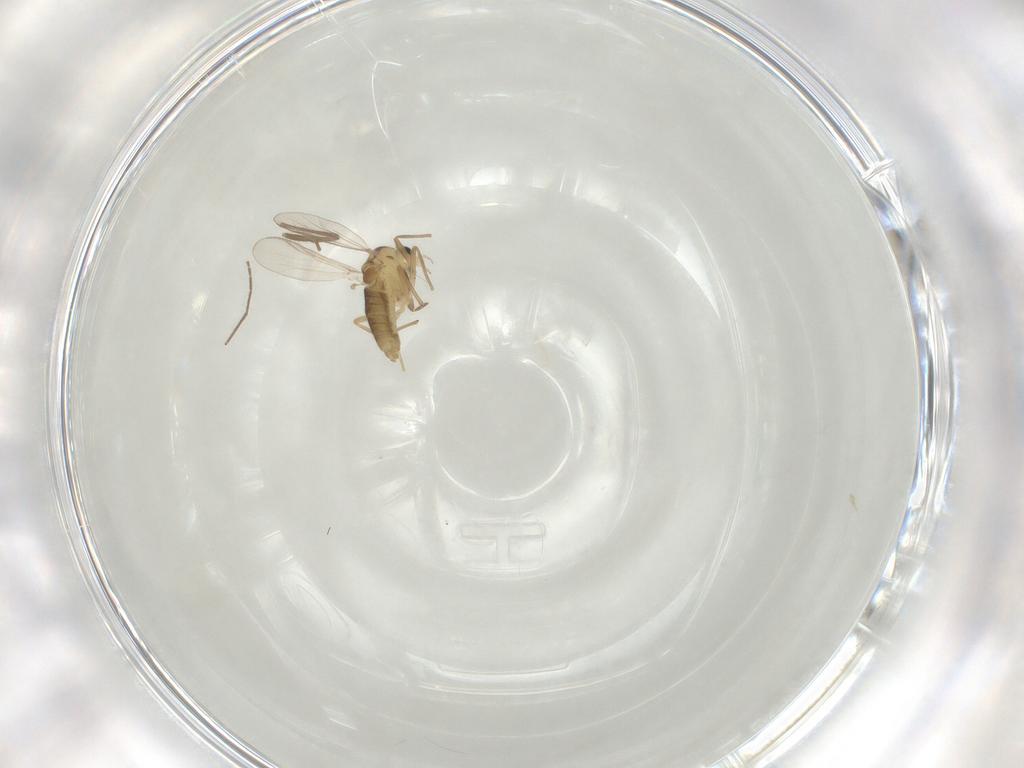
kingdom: Animalia
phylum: Arthropoda
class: Insecta
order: Diptera
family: Chironomidae
